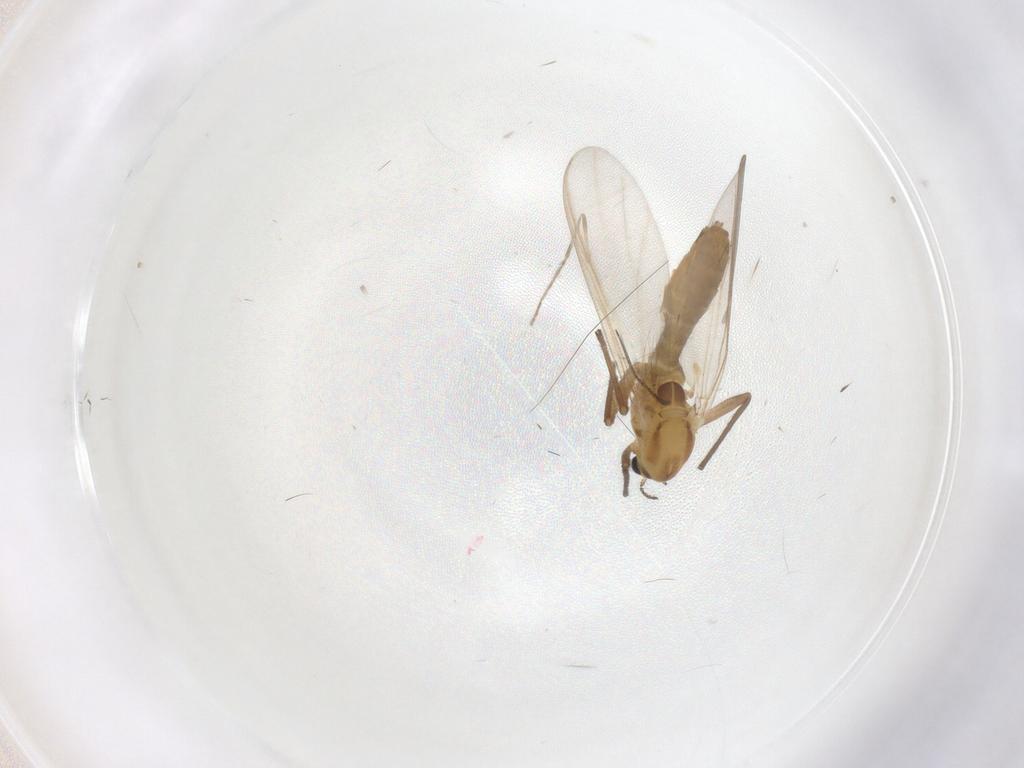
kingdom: Animalia
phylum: Arthropoda
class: Insecta
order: Diptera
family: Chironomidae
